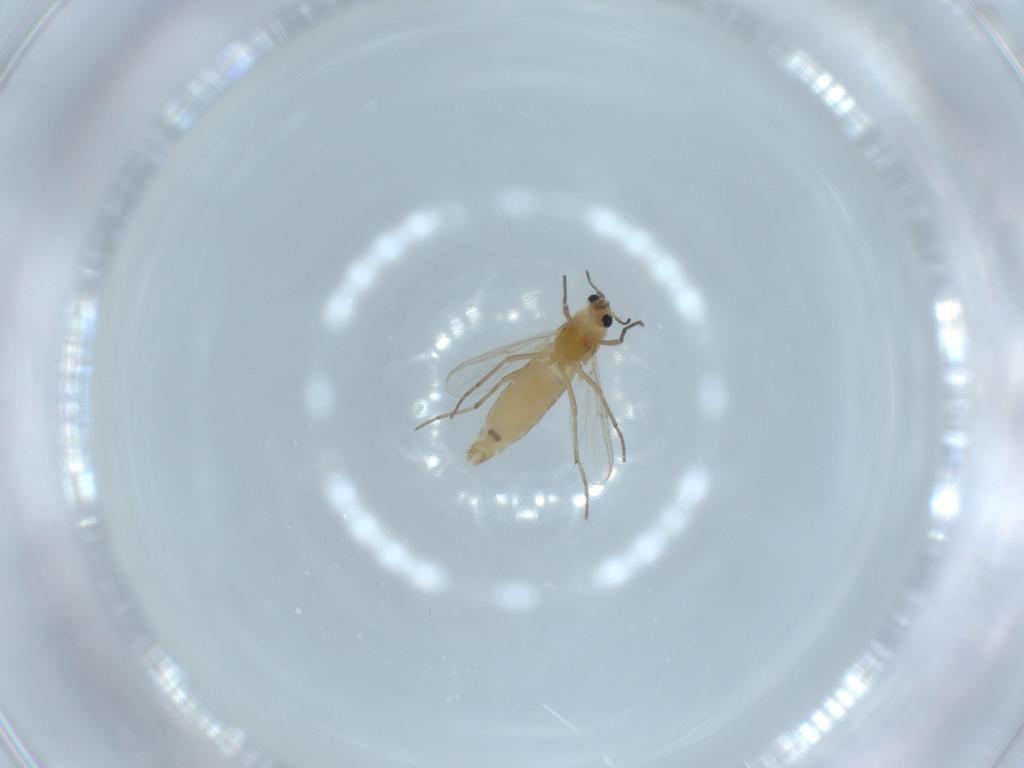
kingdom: Animalia
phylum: Arthropoda
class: Insecta
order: Diptera
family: Chironomidae
